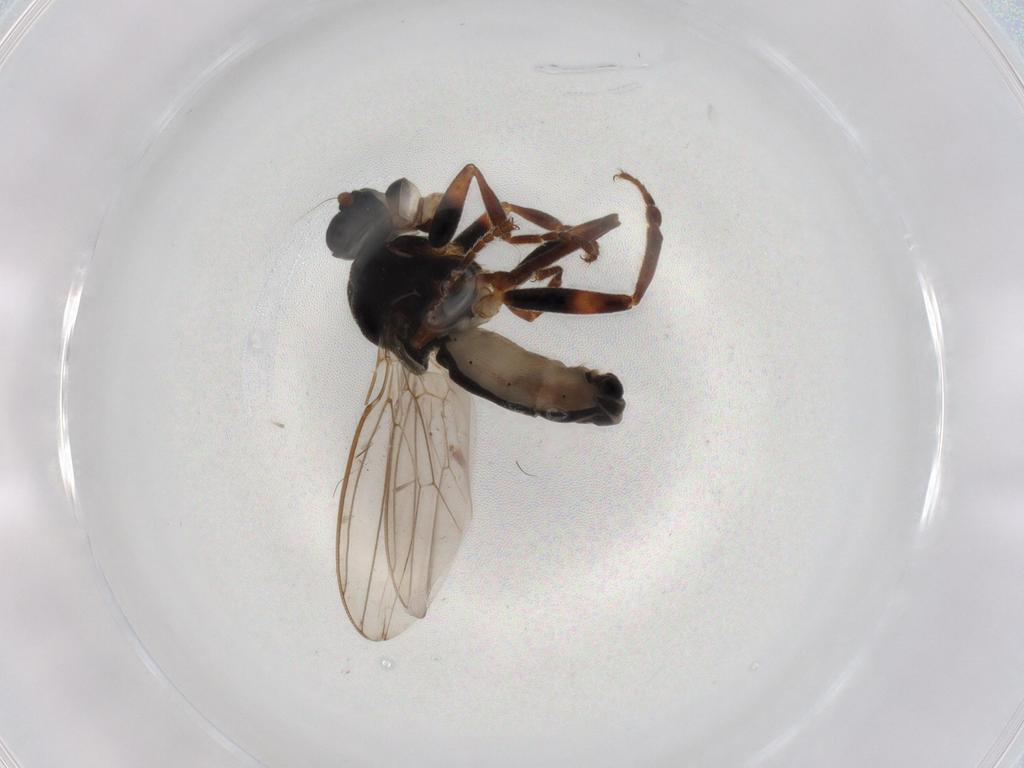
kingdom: Animalia
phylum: Arthropoda
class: Insecta
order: Diptera
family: Sphaeroceridae
